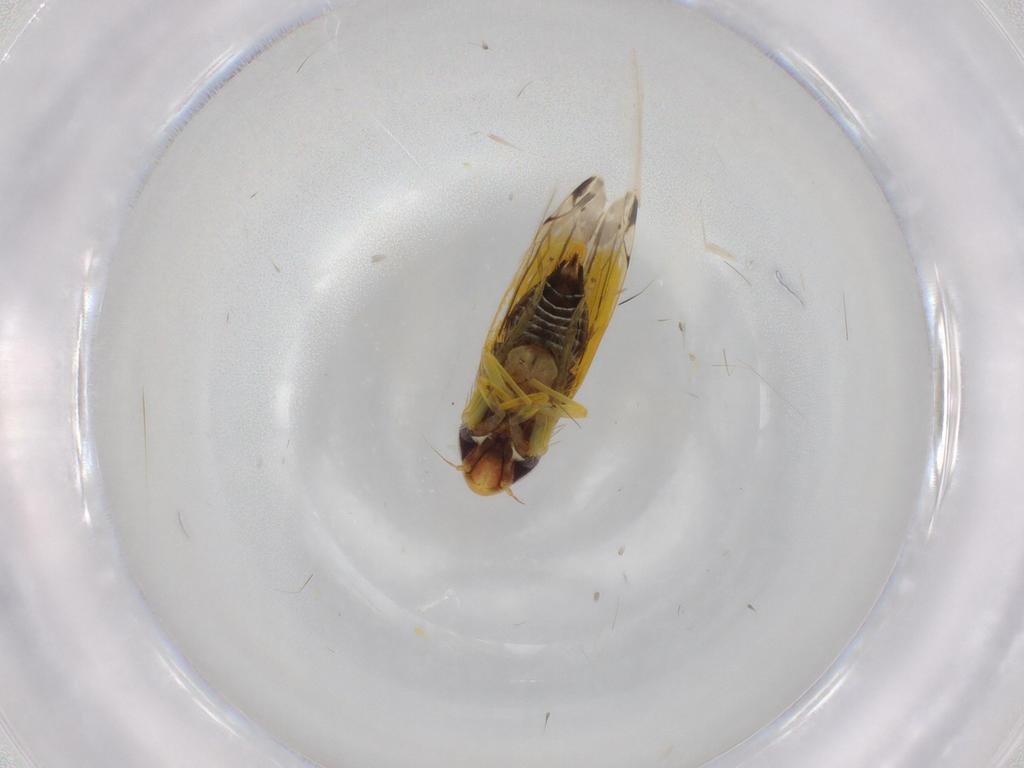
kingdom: Animalia
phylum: Arthropoda
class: Insecta
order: Hemiptera
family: Cicadellidae
